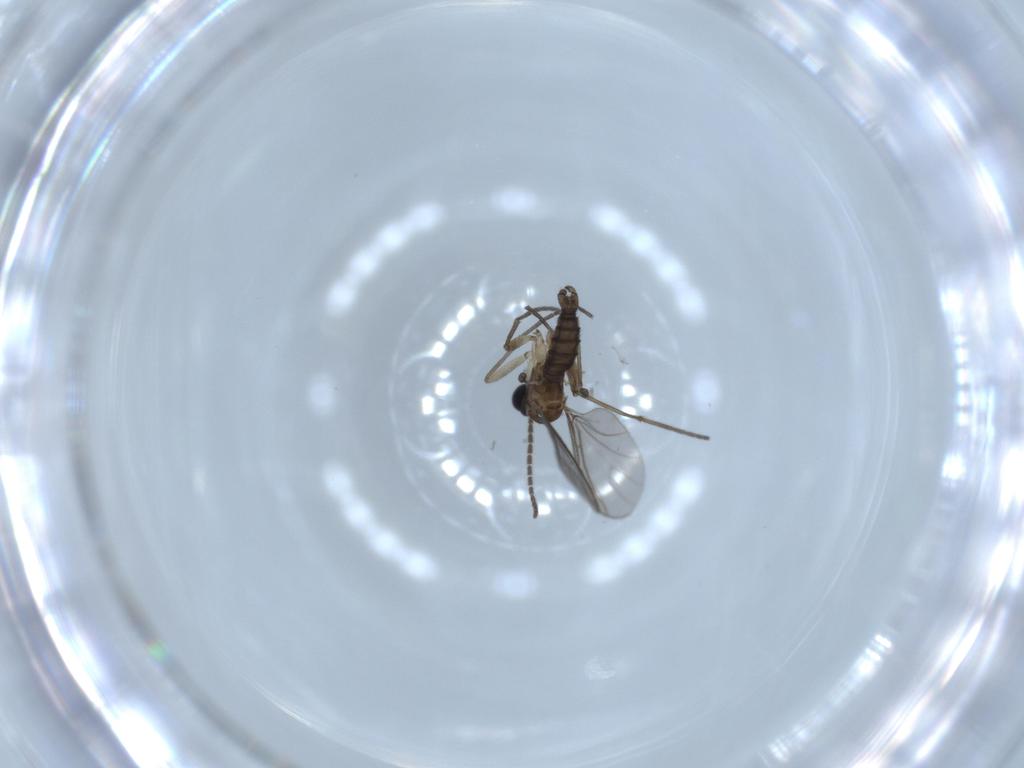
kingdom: Animalia
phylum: Arthropoda
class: Insecta
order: Diptera
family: Sciaridae
